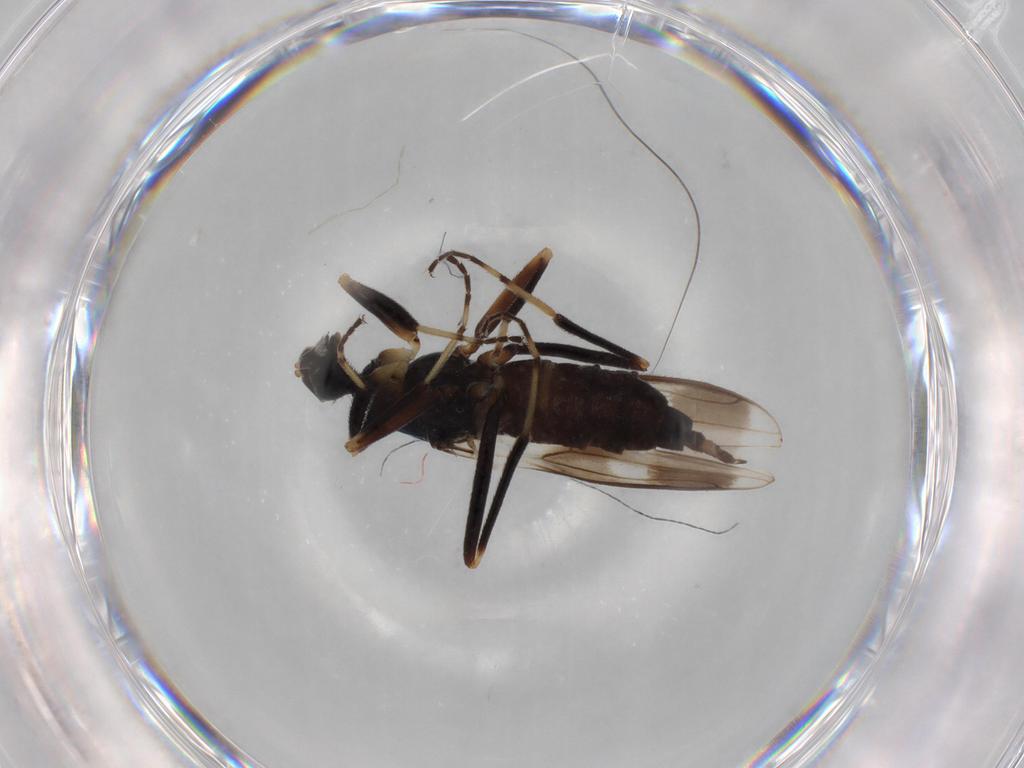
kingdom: Animalia
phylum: Arthropoda
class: Insecta
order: Diptera
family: Hybotidae
